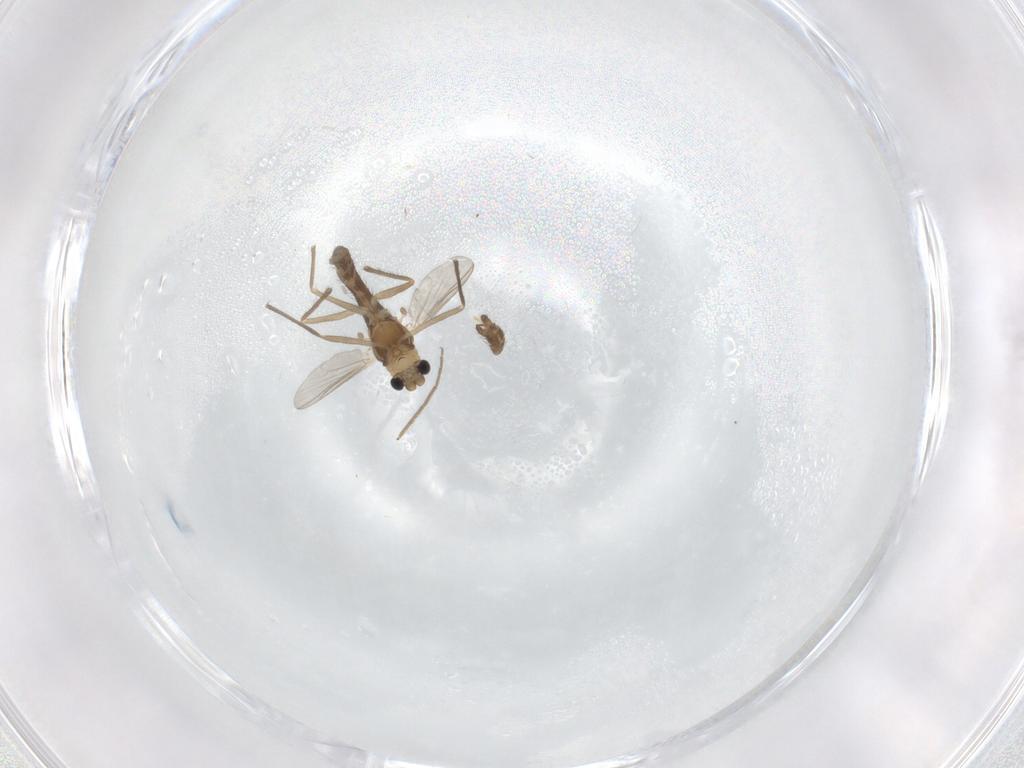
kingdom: Animalia
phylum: Arthropoda
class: Insecta
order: Diptera
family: Chironomidae
